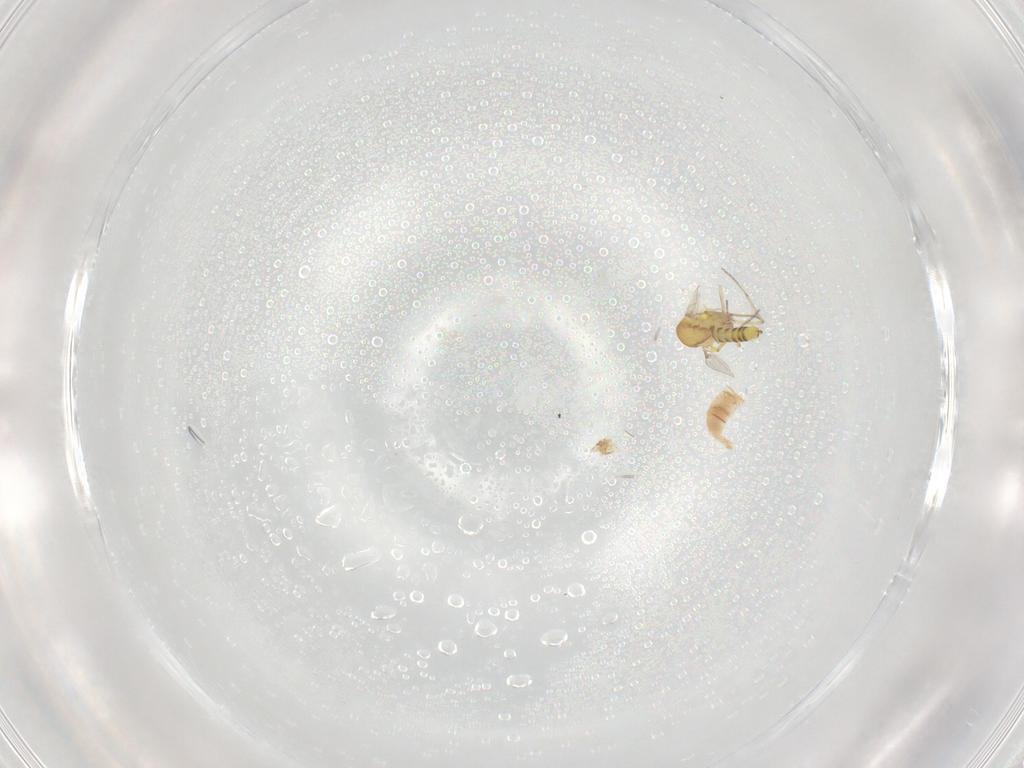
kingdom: Animalia
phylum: Arthropoda
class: Insecta
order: Diptera
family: Ceratopogonidae
